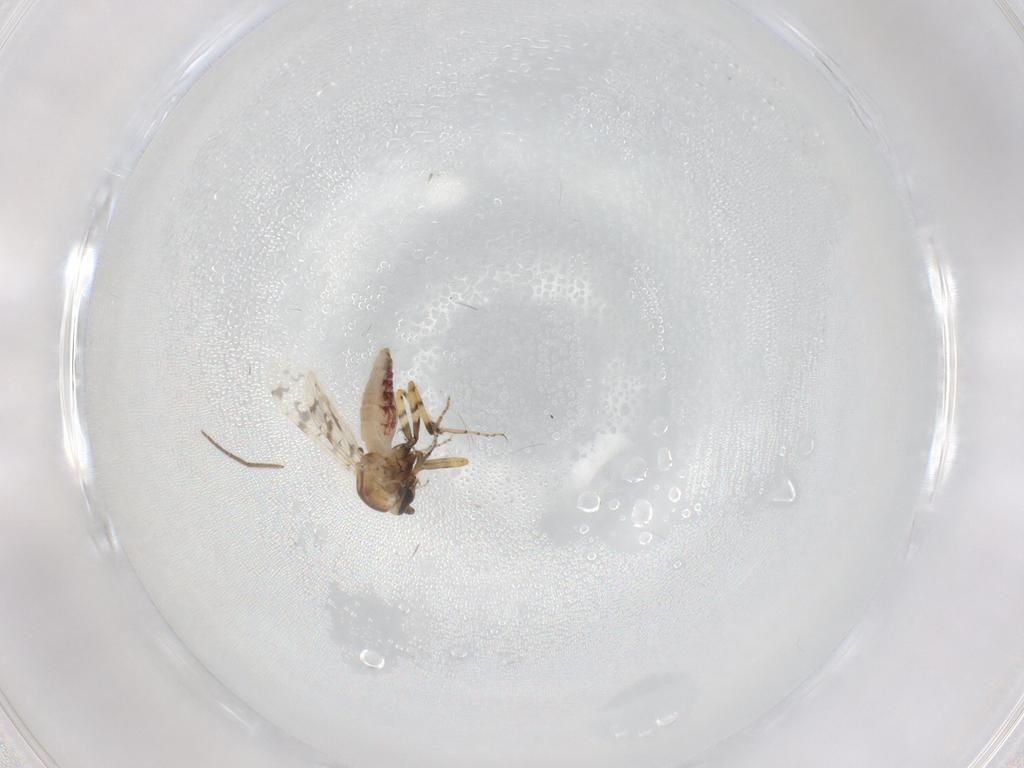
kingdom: Animalia
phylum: Arthropoda
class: Insecta
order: Diptera
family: Ceratopogonidae
